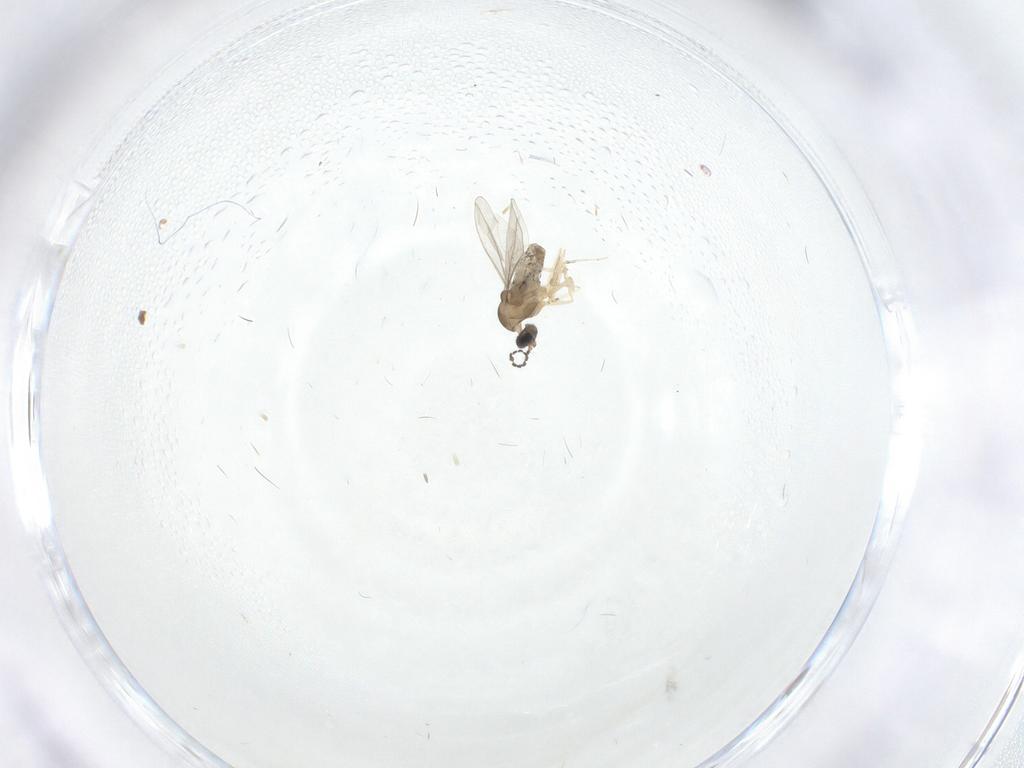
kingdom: Animalia
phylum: Arthropoda
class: Insecta
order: Diptera
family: Cecidomyiidae
